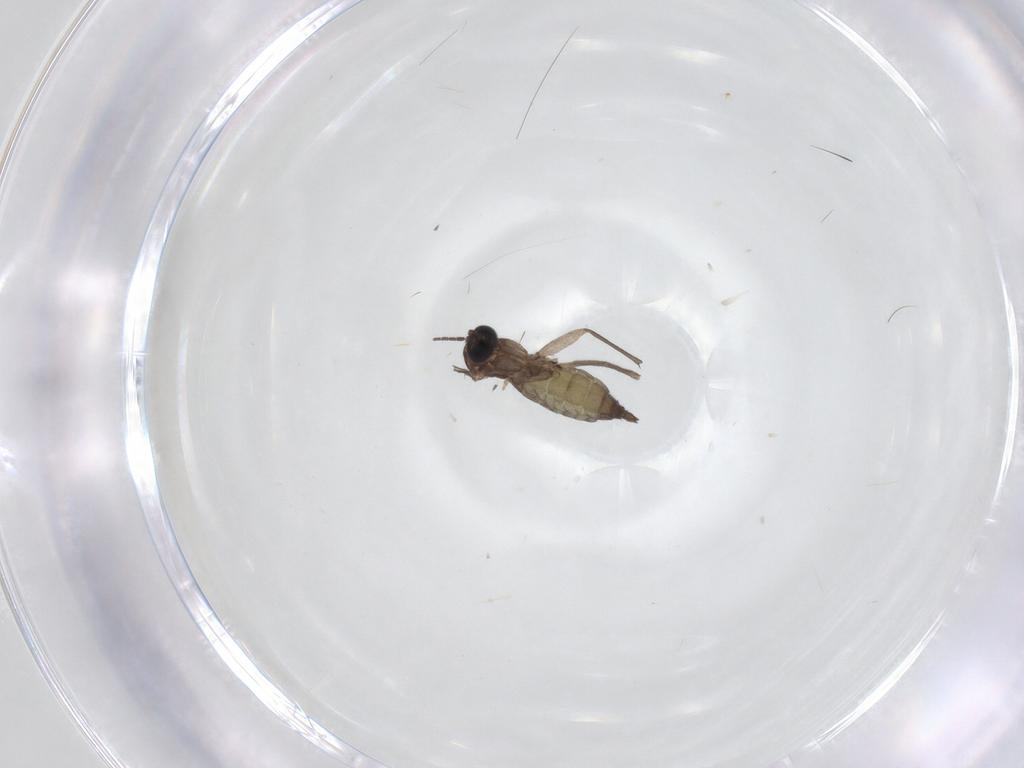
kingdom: Animalia
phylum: Arthropoda
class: Insecta
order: Diptera
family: Sciaridae
